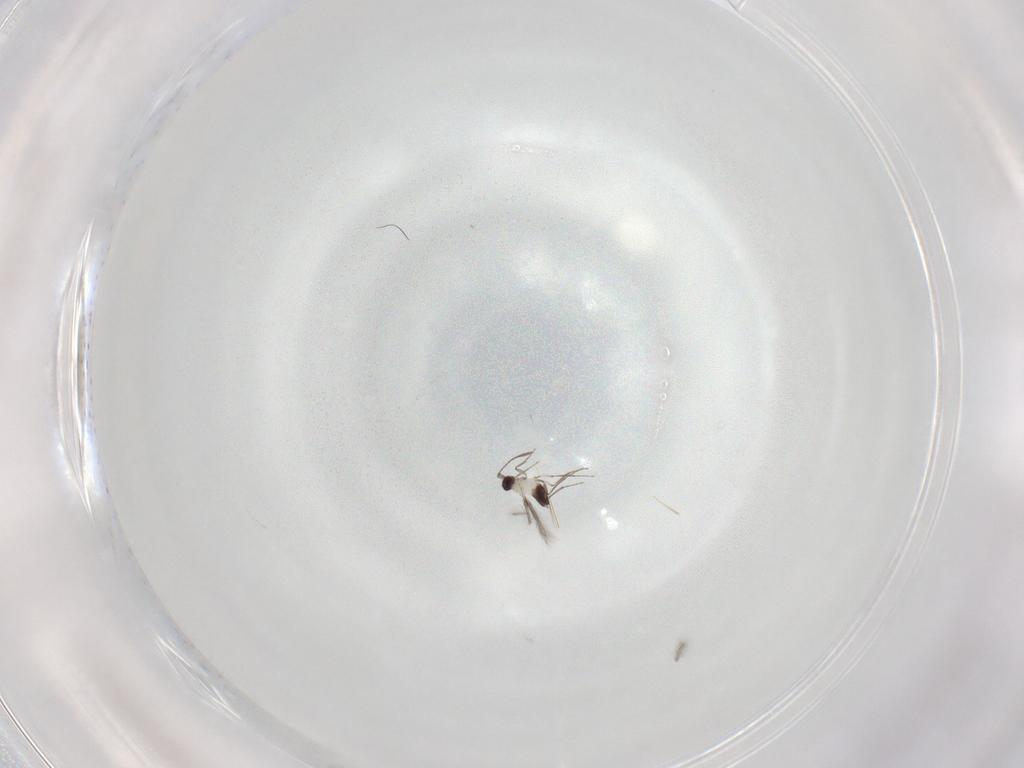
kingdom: Animalia
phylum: Arthropoda
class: Insecta
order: Hymenoptera
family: Mymaridae
